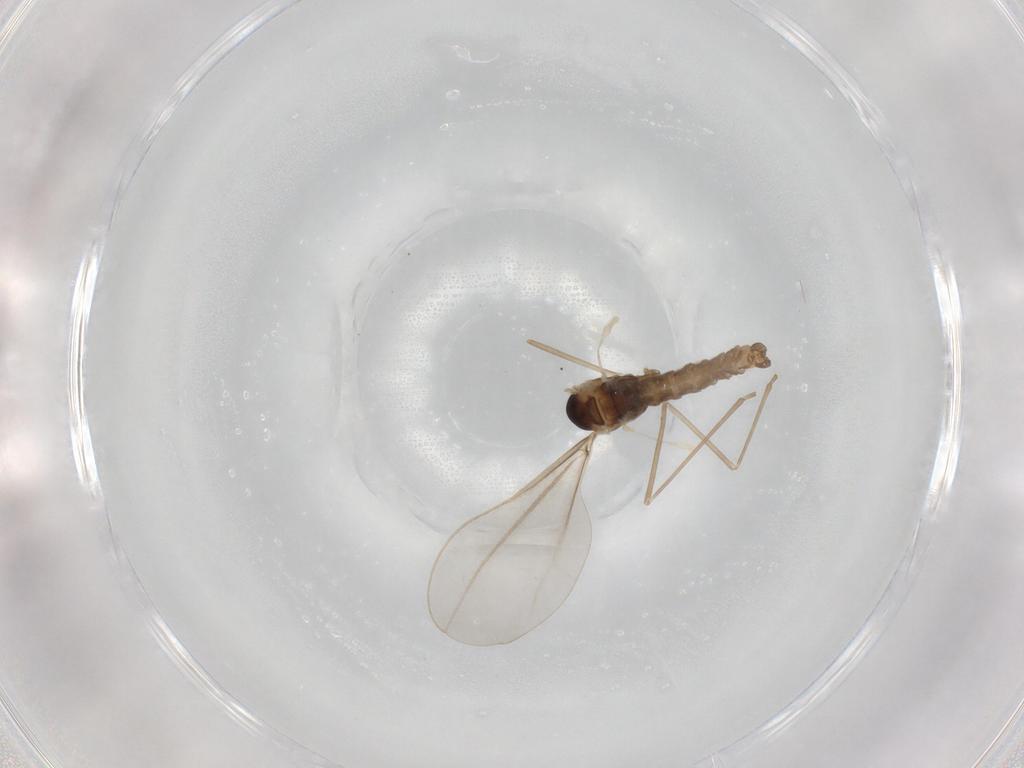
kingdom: Animalia
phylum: Arthropoda
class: Insecta
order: Diptera
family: Cecidomyiidae
